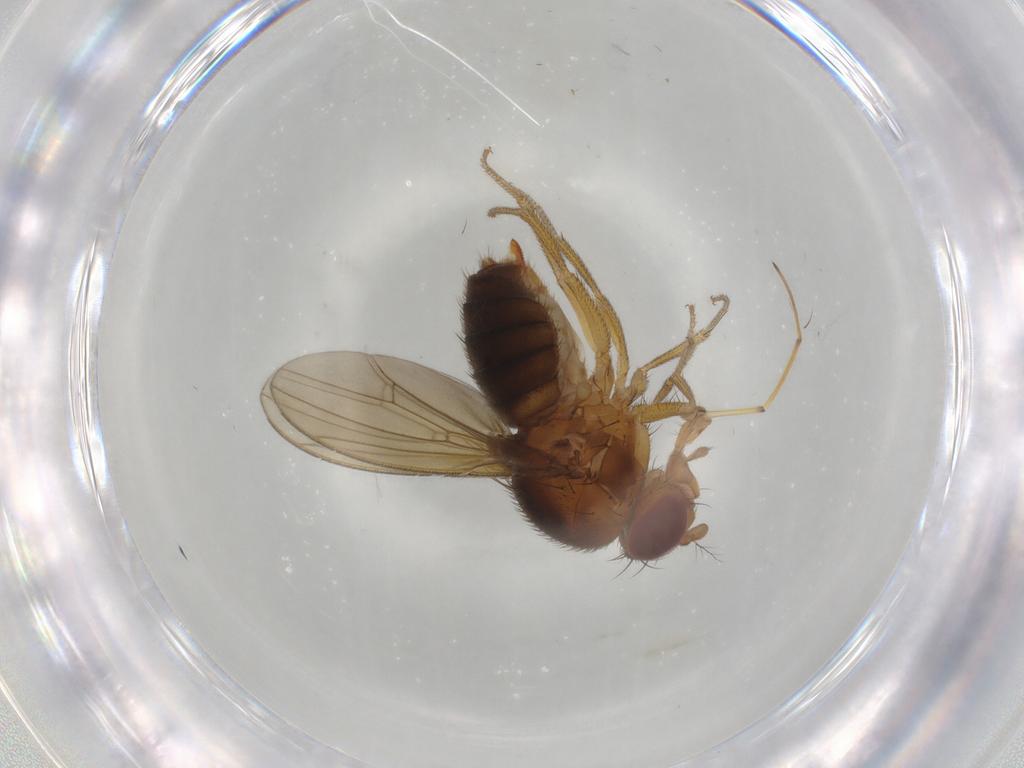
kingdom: Animalia
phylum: Arthropoda
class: Insecta
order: Diptera
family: Drosophilidae
